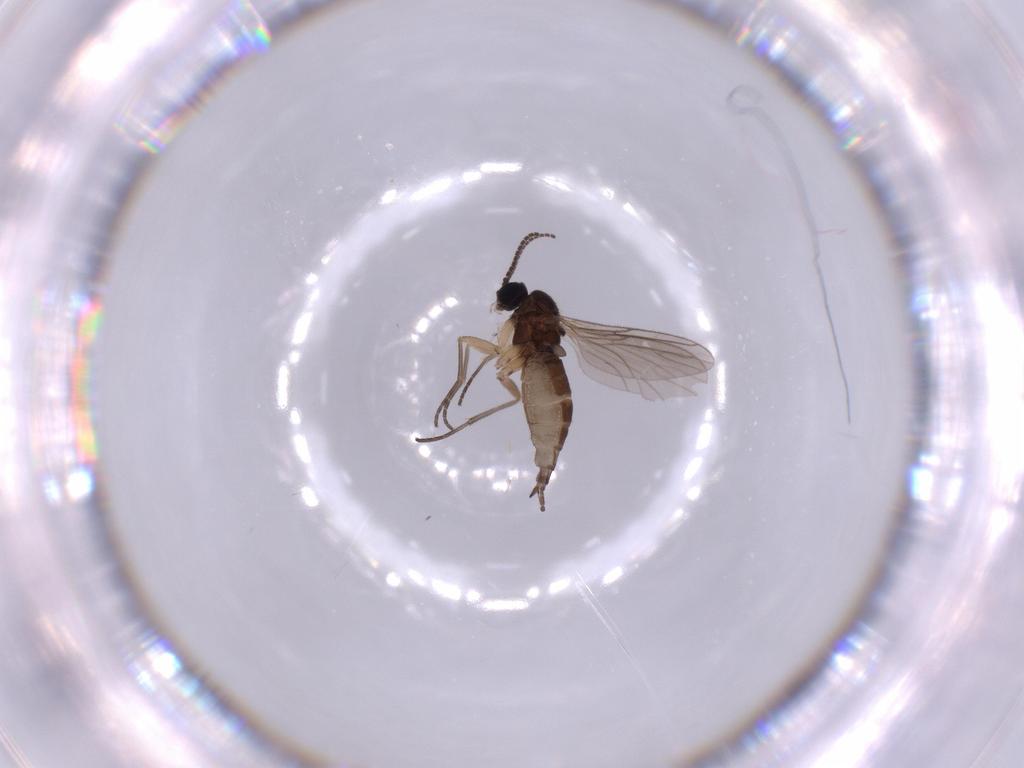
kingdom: Animalia
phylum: Arthropoda
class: Insecta
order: Diptera
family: Sciaridae
